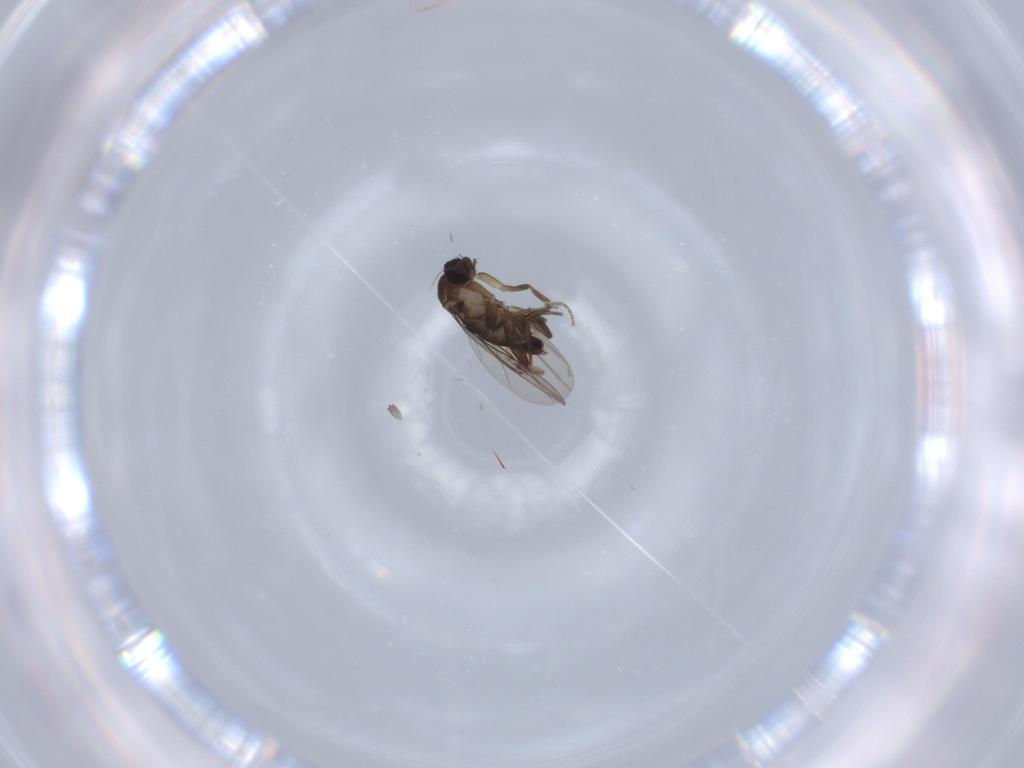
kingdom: Animalia
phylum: Arthropoda
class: Insecta
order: Diptera
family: Phoridae
